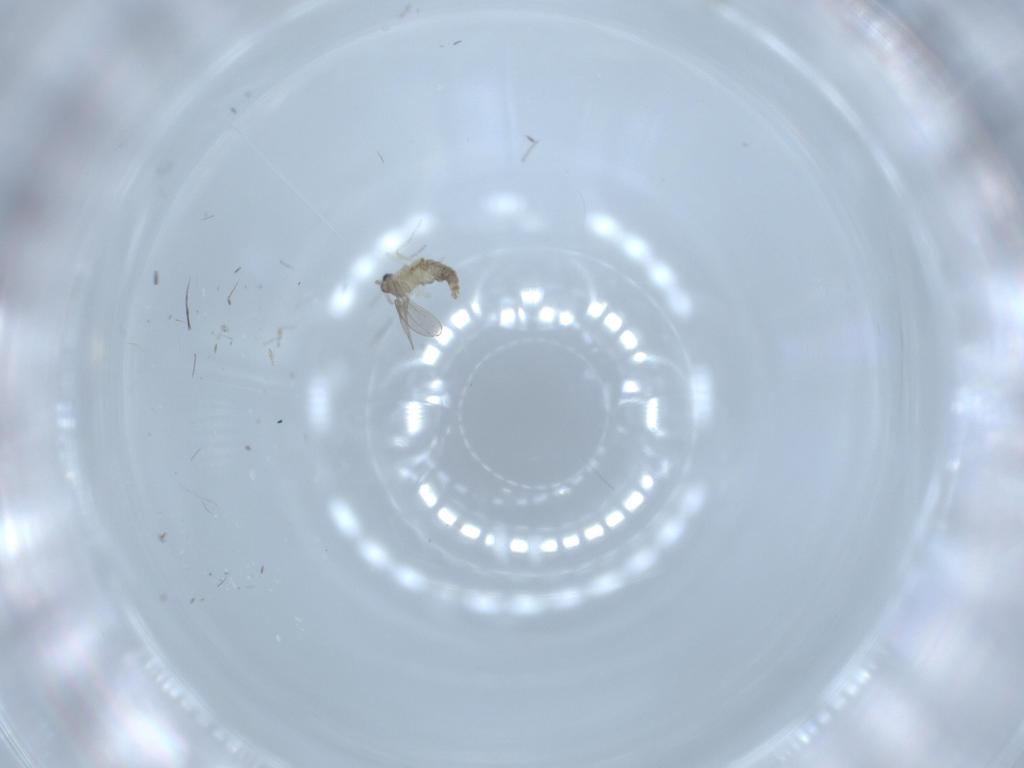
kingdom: Animalia
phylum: Arthropoda
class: Insecta
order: Diptera
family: Cecidomyiidae
